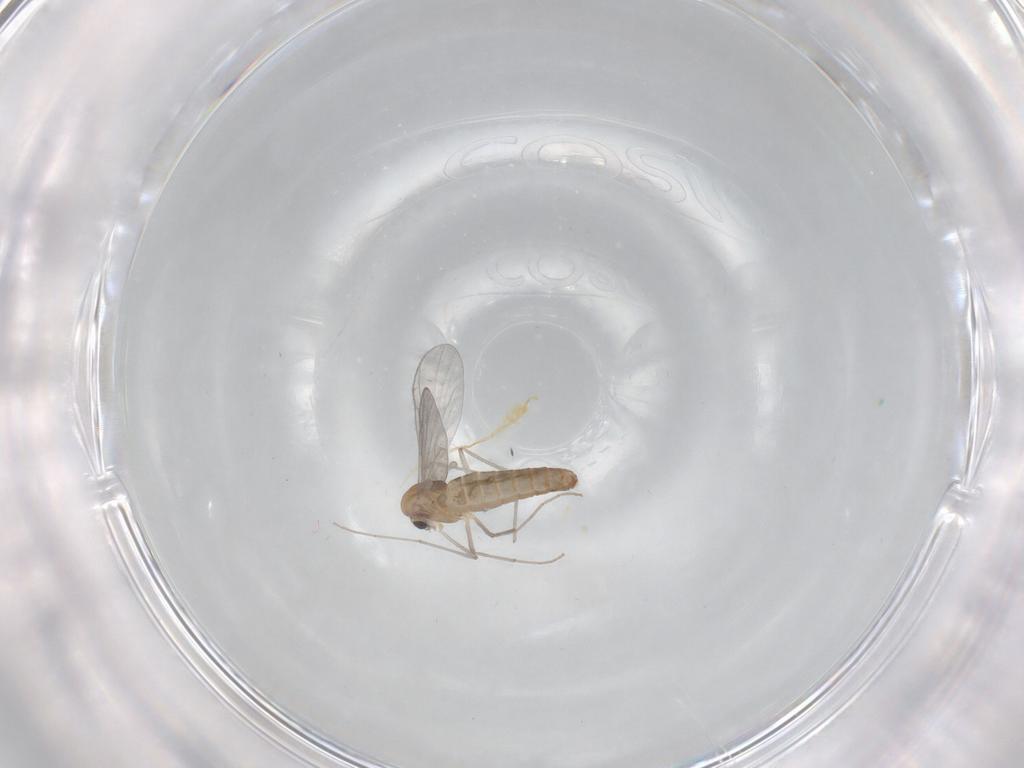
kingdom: Animalia
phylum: Arthropoda
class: Insecta
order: Diptera
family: Chironomidae
